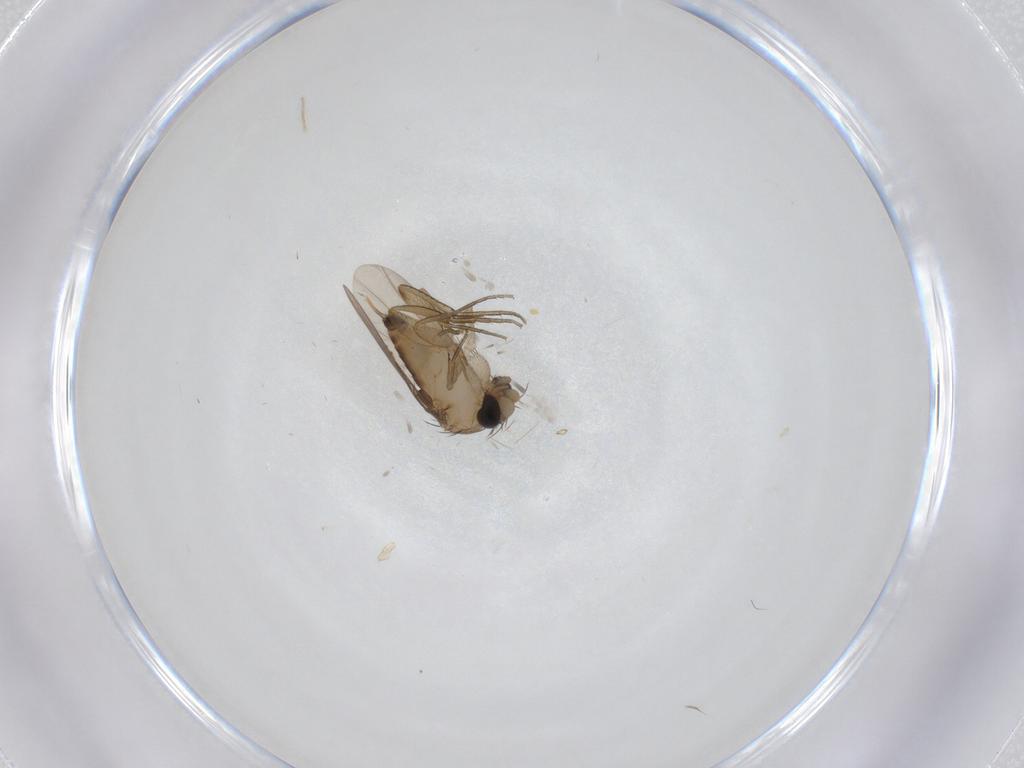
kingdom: Animalia
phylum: Arthropoda
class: Insecta
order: Diptera
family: Phoridae
